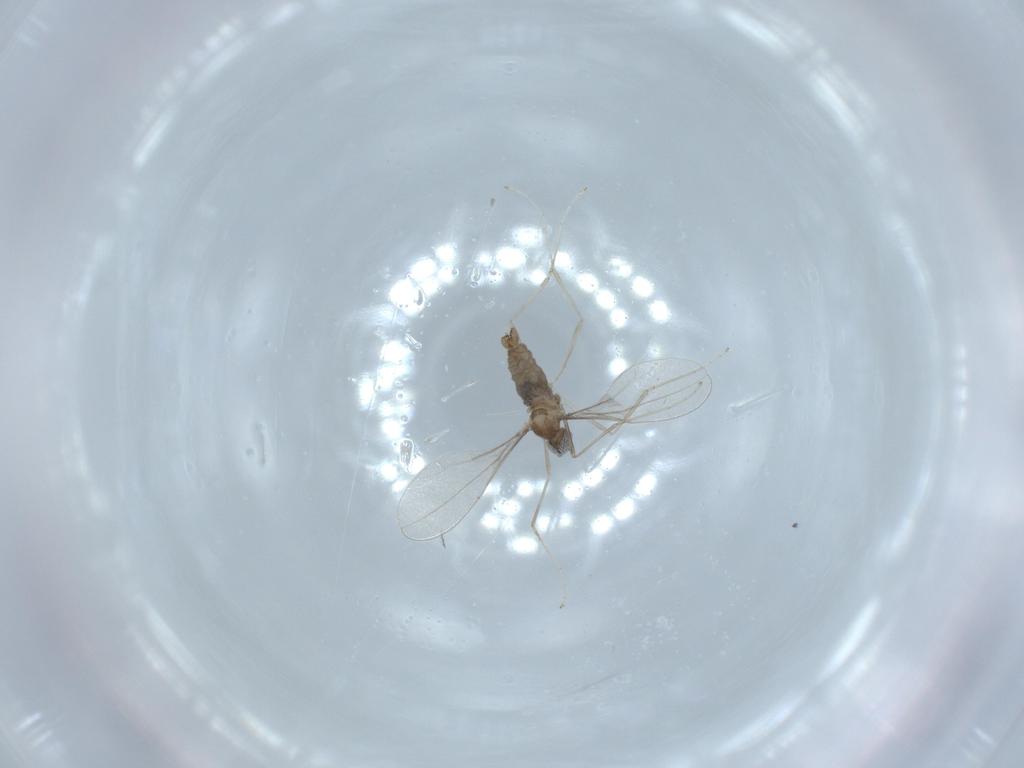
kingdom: Animalia
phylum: Arthropoda
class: Insecta
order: Diptera
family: Cecidomyiidae
